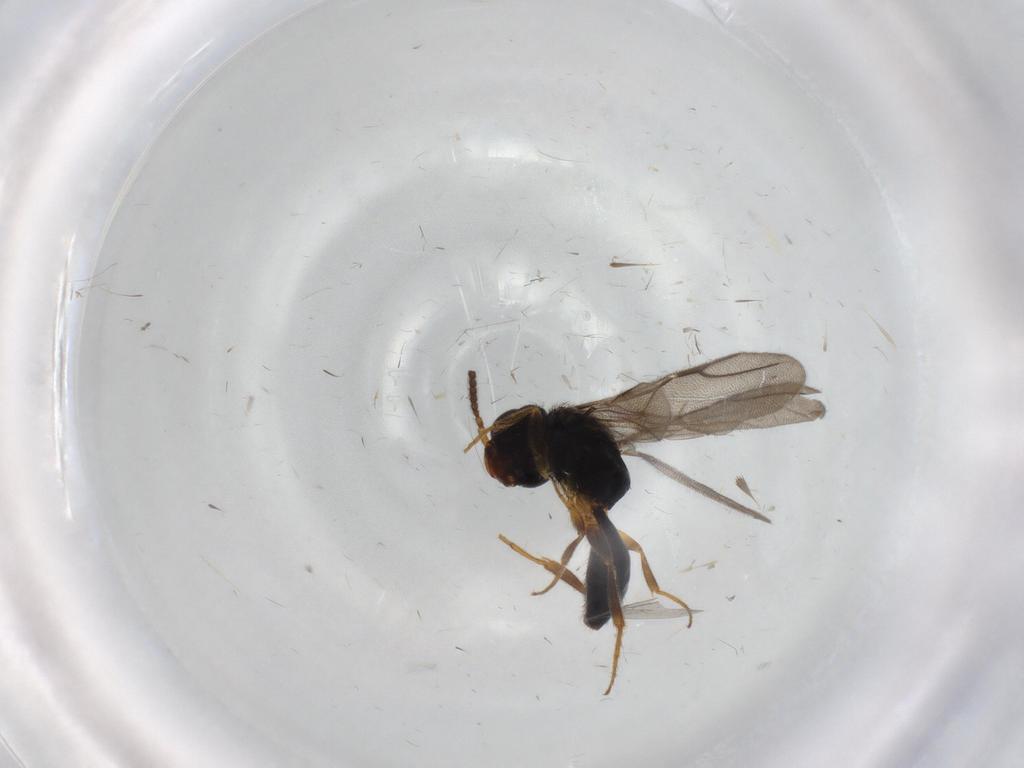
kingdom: Animalia
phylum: Arthropoda
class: Insecta
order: Hymenoptera
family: Bethylidae
